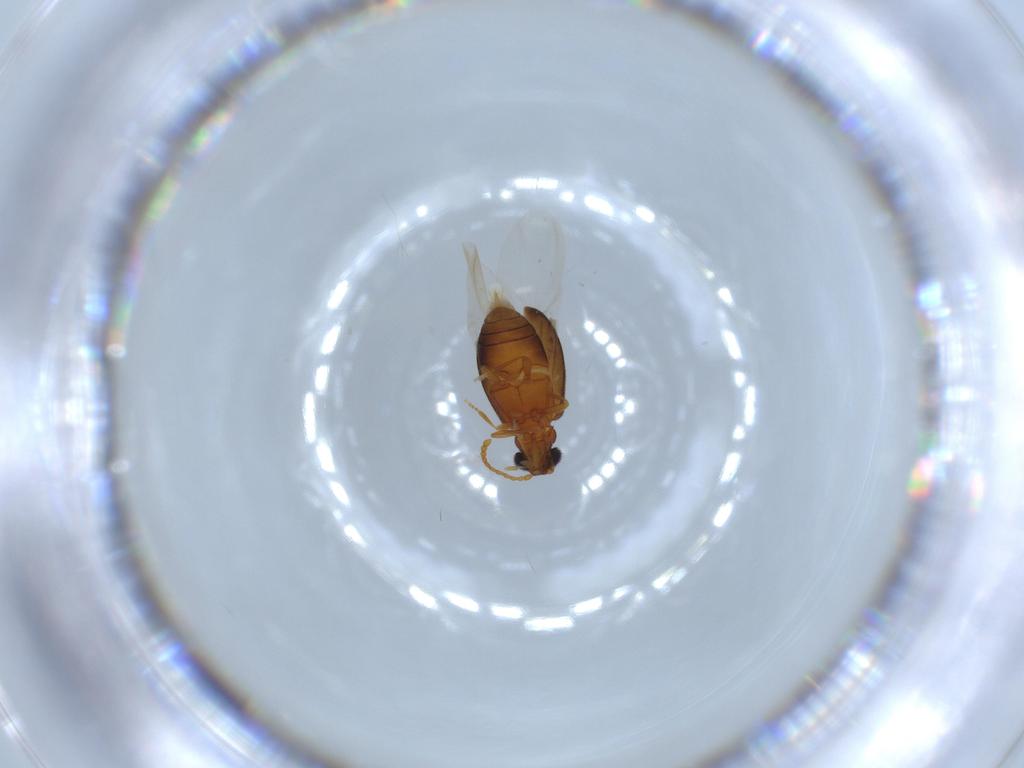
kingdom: Animalia
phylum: Arthropoda
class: Insecta
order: Coleoptera
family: Aderidae
